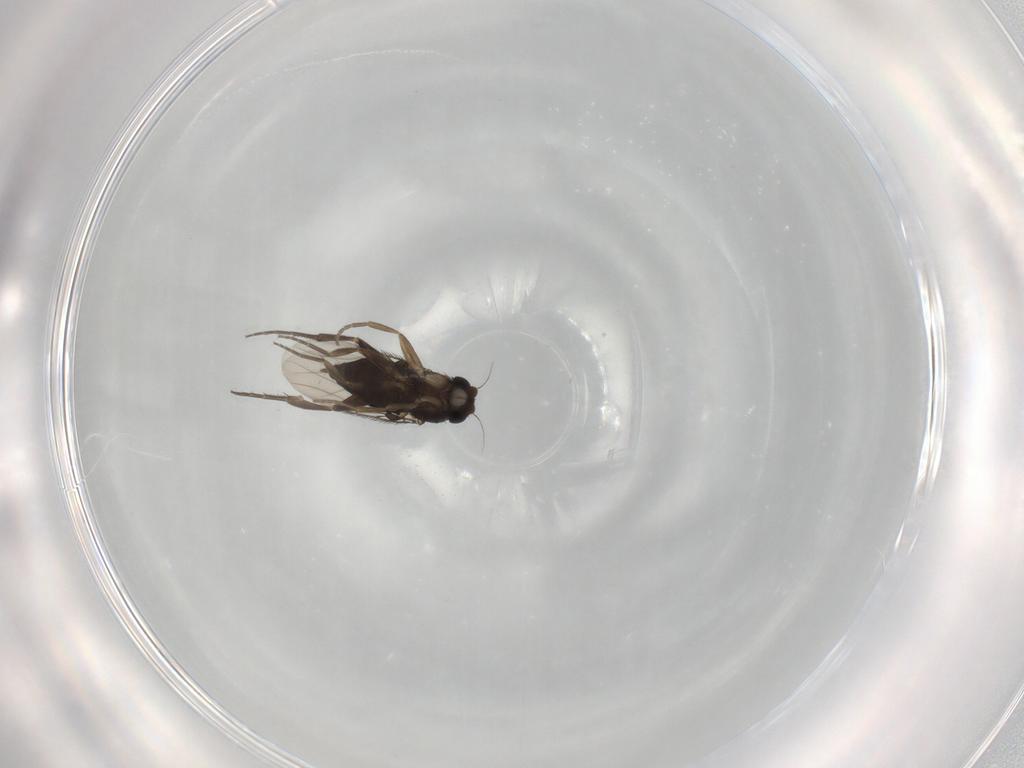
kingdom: Animalia
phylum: Arthropoda
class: Insecta
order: Diptera
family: Phoridae
